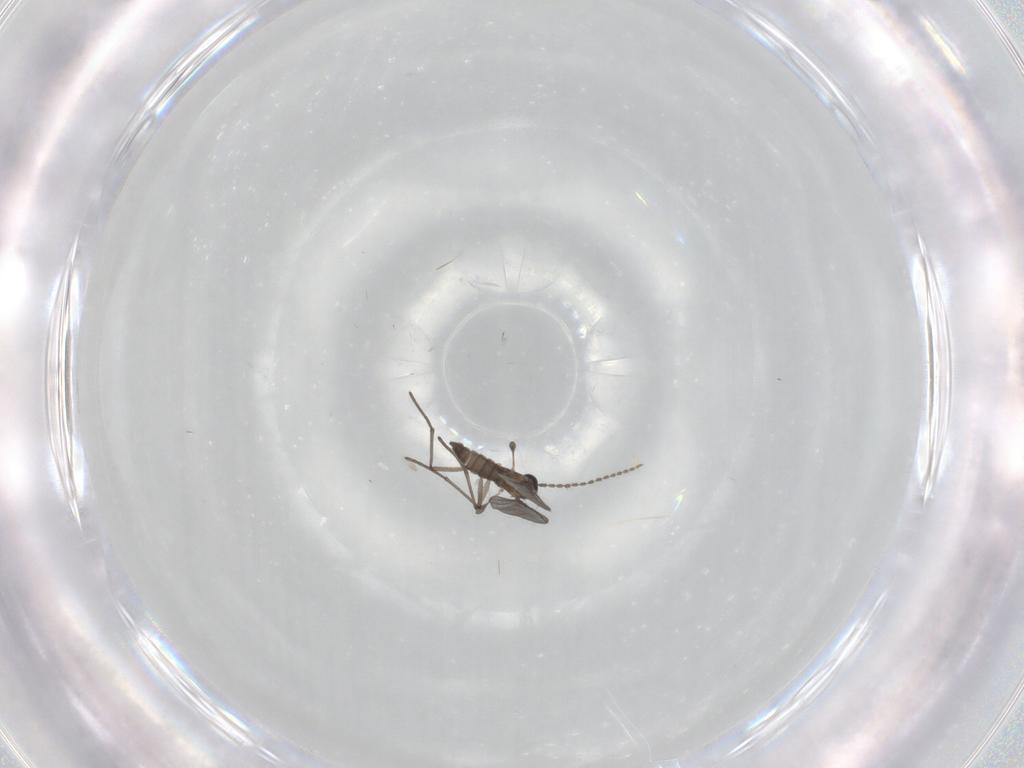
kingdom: Animalia
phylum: Arthropoda
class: Insecta
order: Diptera
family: Sciaridae
